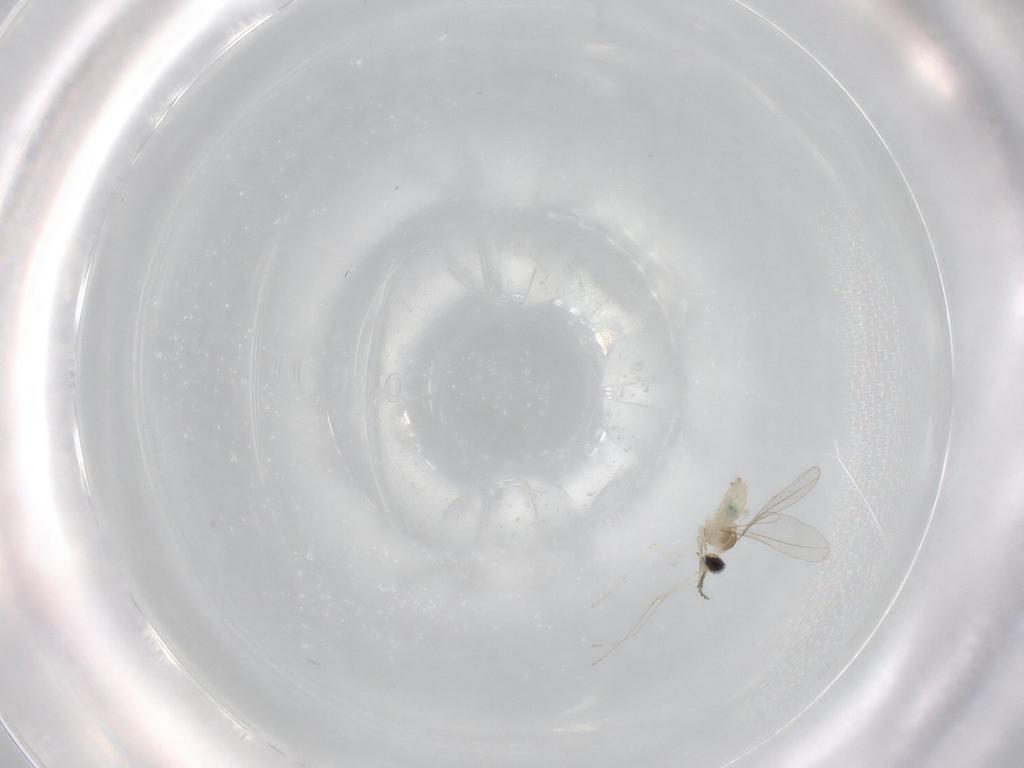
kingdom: Animalia
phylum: Arthropoda
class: Insecta
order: Diptera
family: Cecidomyiidae
